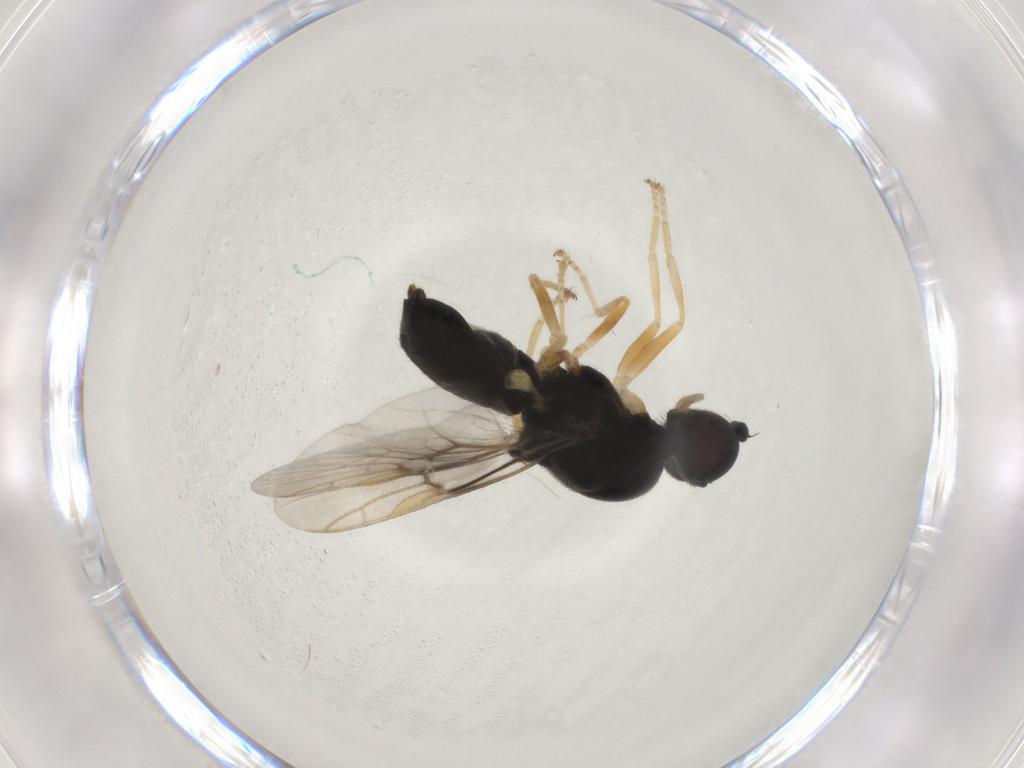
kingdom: Animalia
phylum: Arthropoda
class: Insecta
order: Diptera
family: Stratiomyidae
